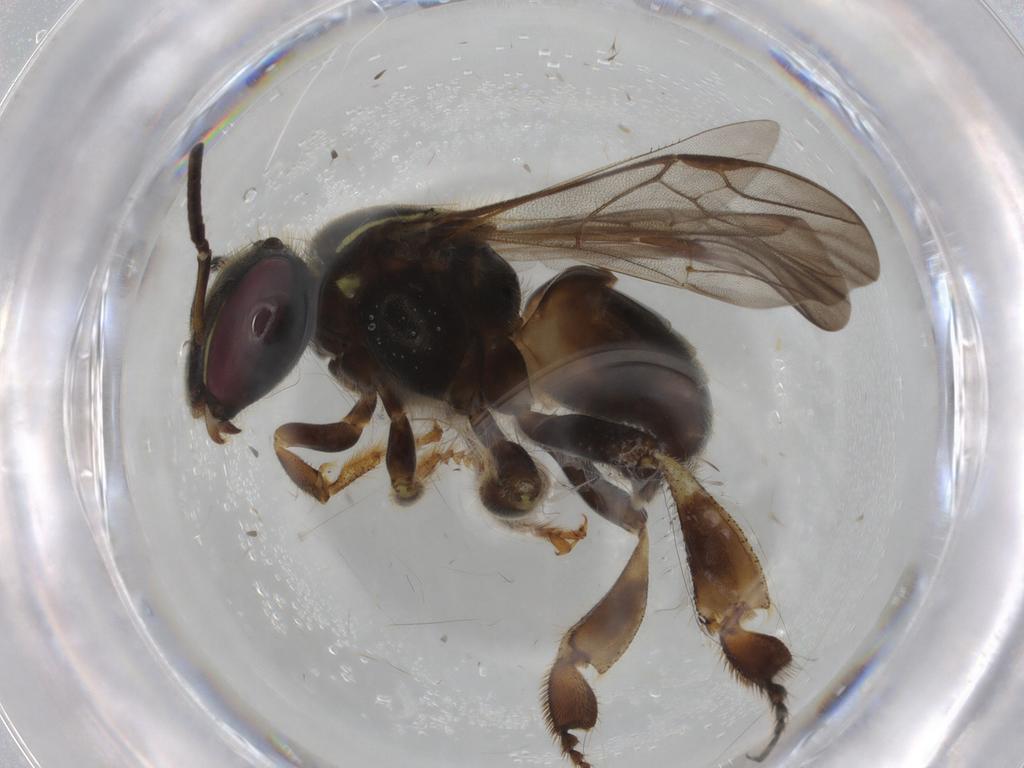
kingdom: Animalia
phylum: Arthropoda
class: Insecta
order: Hymenoptera
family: Apidae
